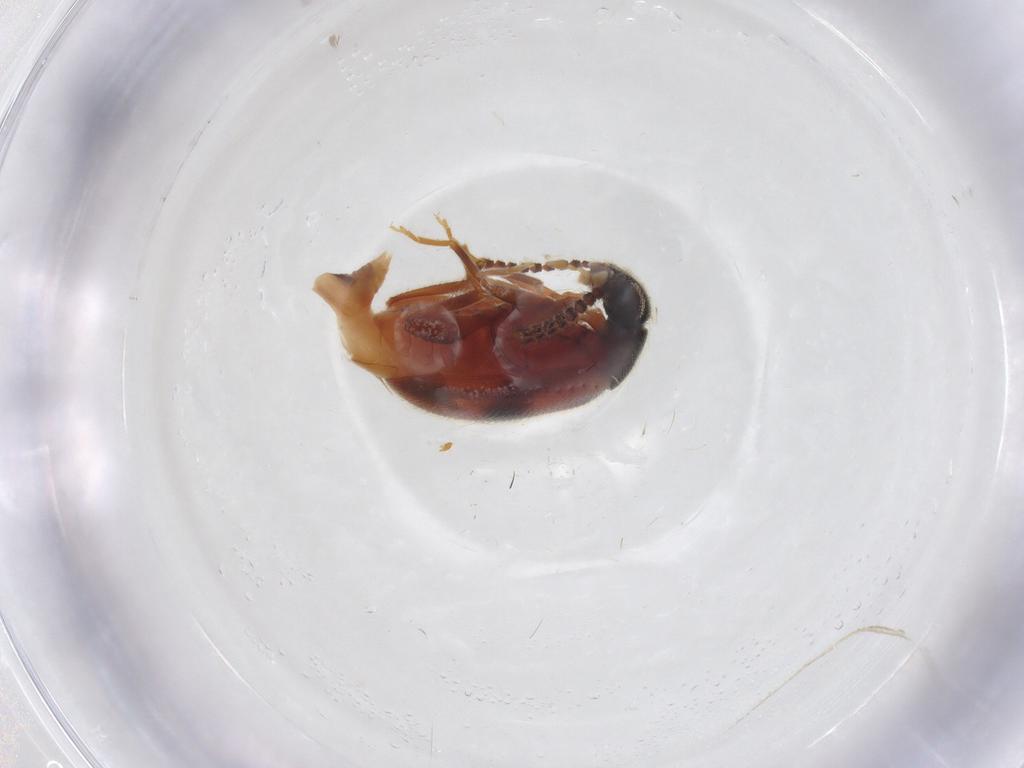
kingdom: Animalia
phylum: Arthropoda
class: Insecta
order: Coleoptera
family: Aderidae
